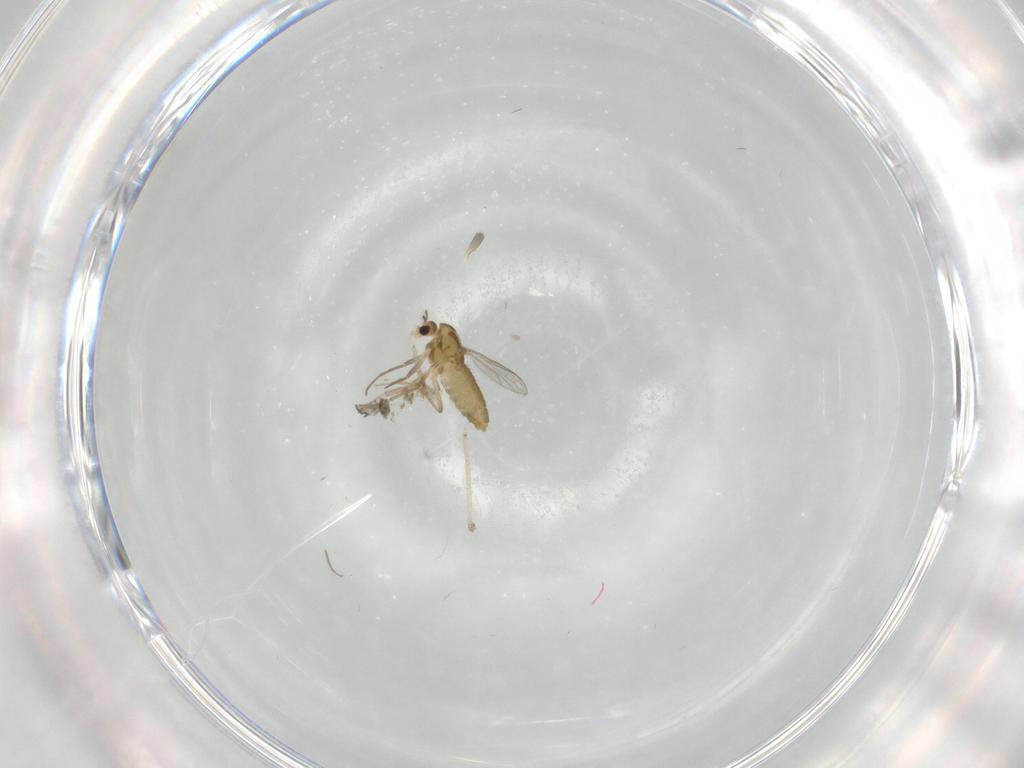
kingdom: Animalia
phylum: Arthropoda
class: Insecta
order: Diptera
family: Chironomidae
